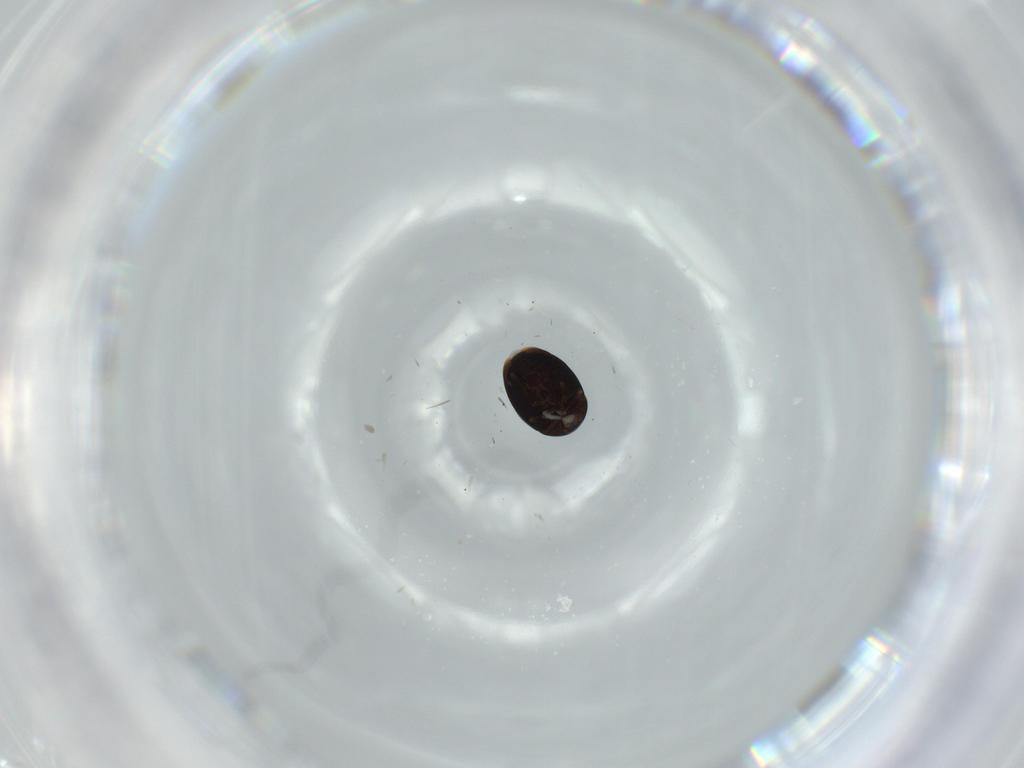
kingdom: Animalia
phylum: Arthropoda
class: Insecta
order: Coleoptera
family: Corylophidae
